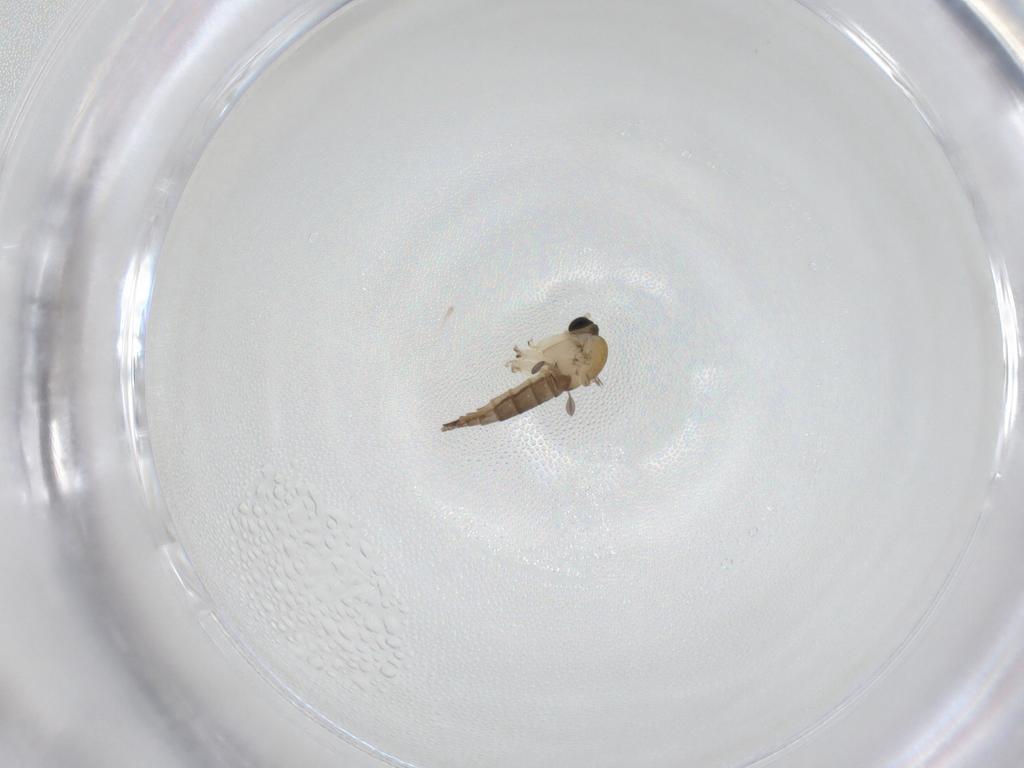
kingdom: Animalia
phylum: Arthropoda
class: Insecta
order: Diptera
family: Sciaridae
